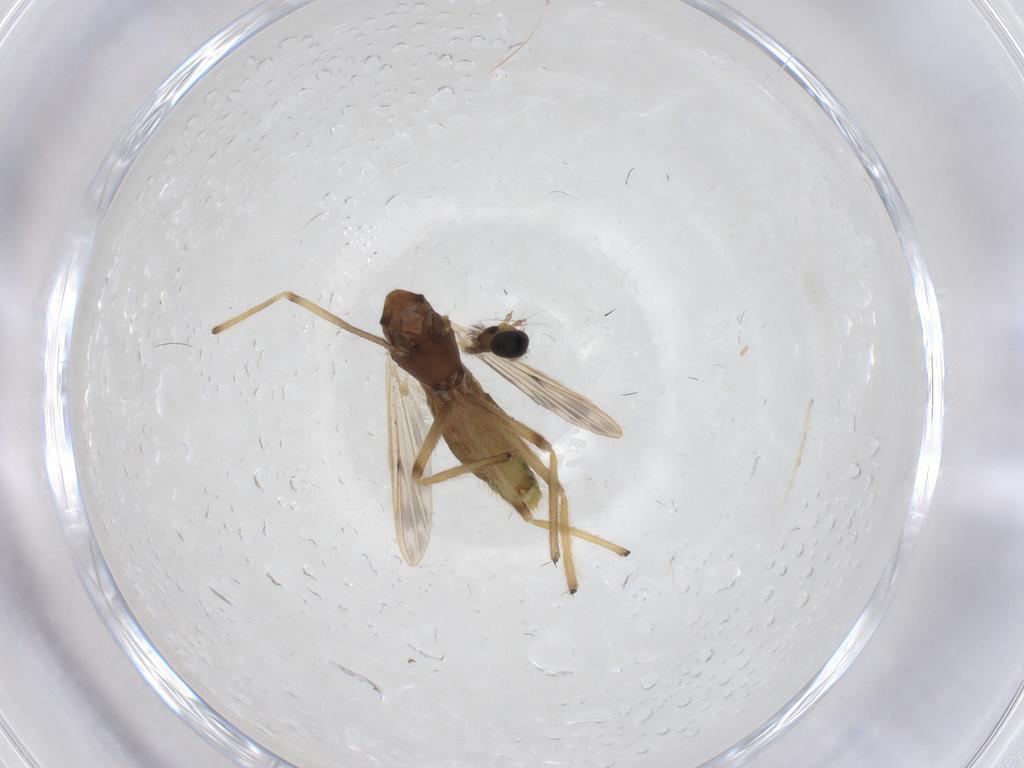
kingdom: Animalia
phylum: Arthropoda
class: Insecta
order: Diptera
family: Chironomidae
